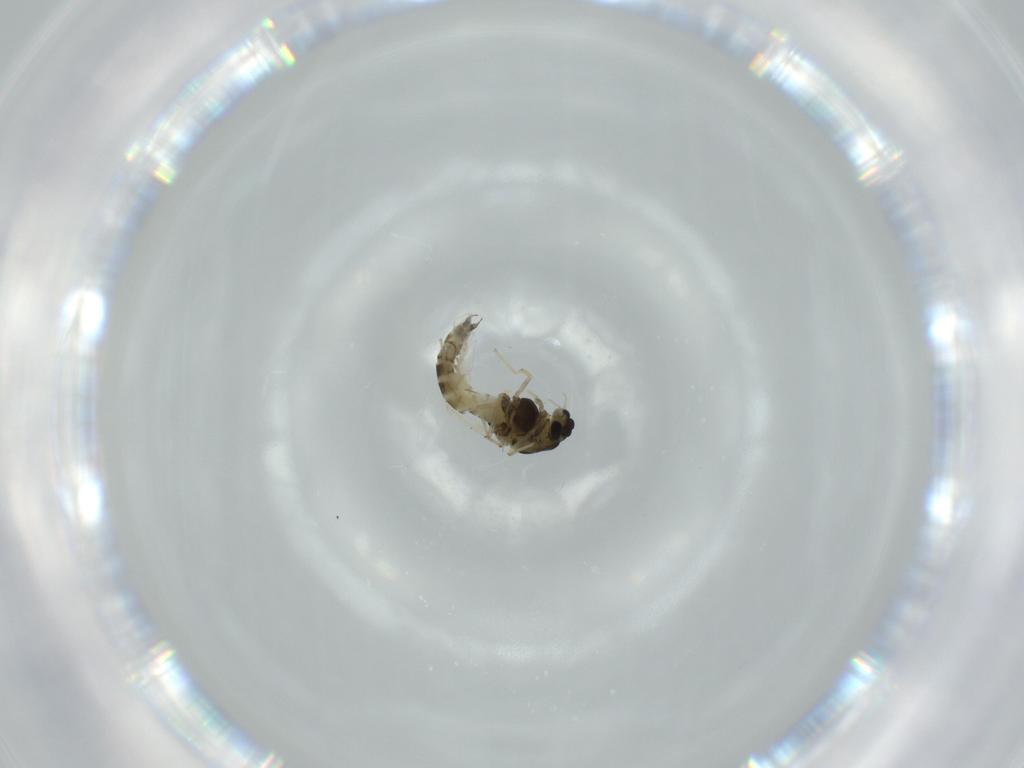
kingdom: Animalia
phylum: Arthropoda
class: Insecta
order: Diptera
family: Chironomidae
